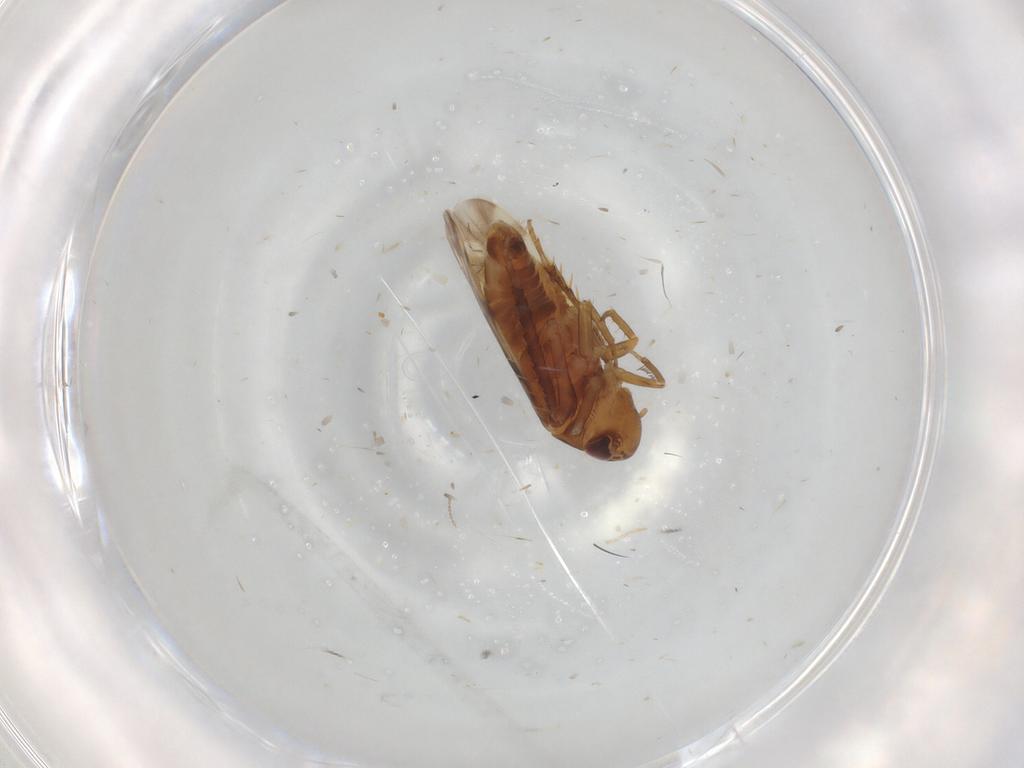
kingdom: Animalia
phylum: Arthropoda
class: Insecta
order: Hemiptera
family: Cicadellidae
